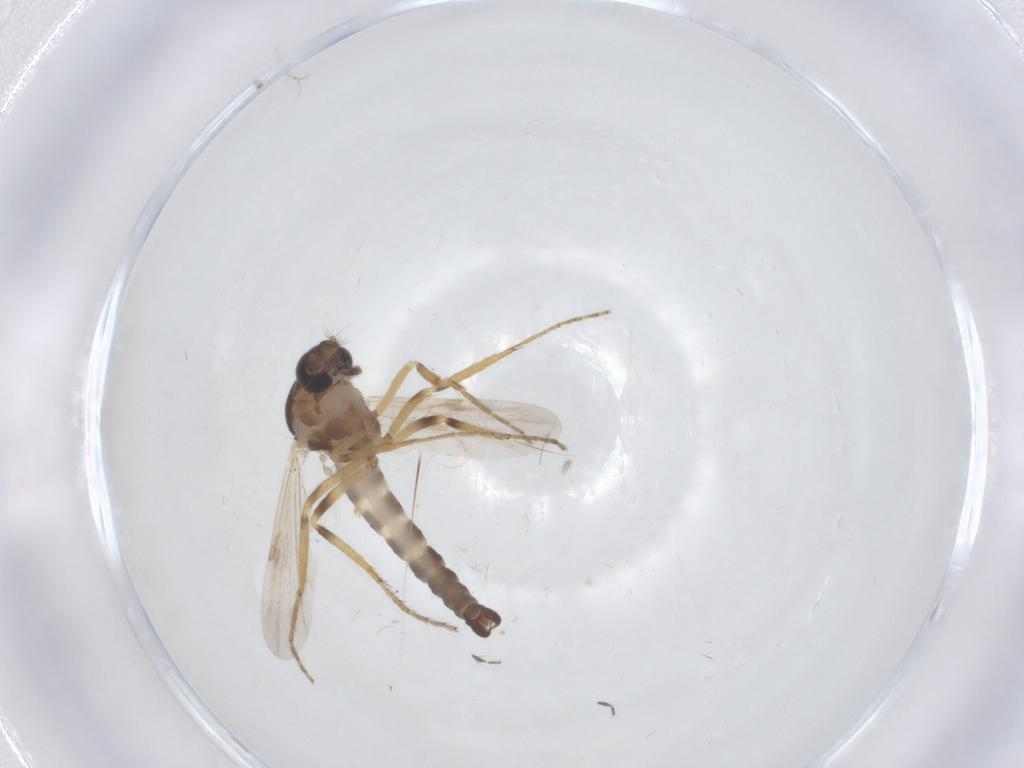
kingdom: Animalia
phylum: Arthropoda
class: Insecta
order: Diptera
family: Ceratopogonidae
